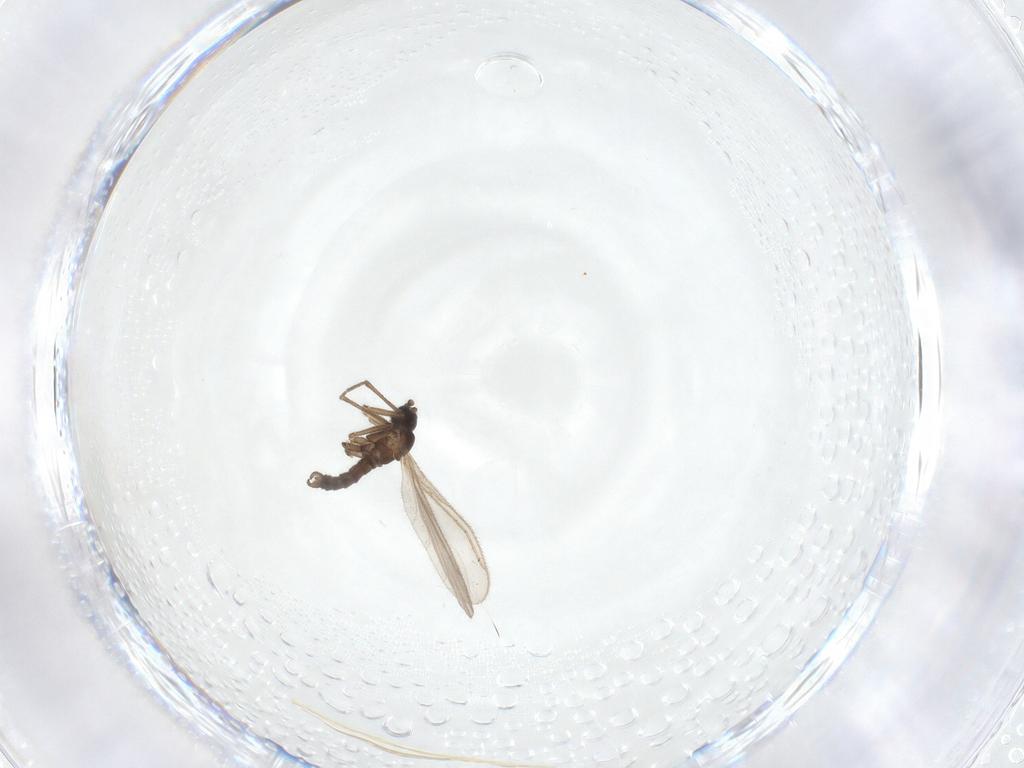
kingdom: Animalia
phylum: Arthropoda
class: Insecta
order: Diptera
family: Sciaridae
